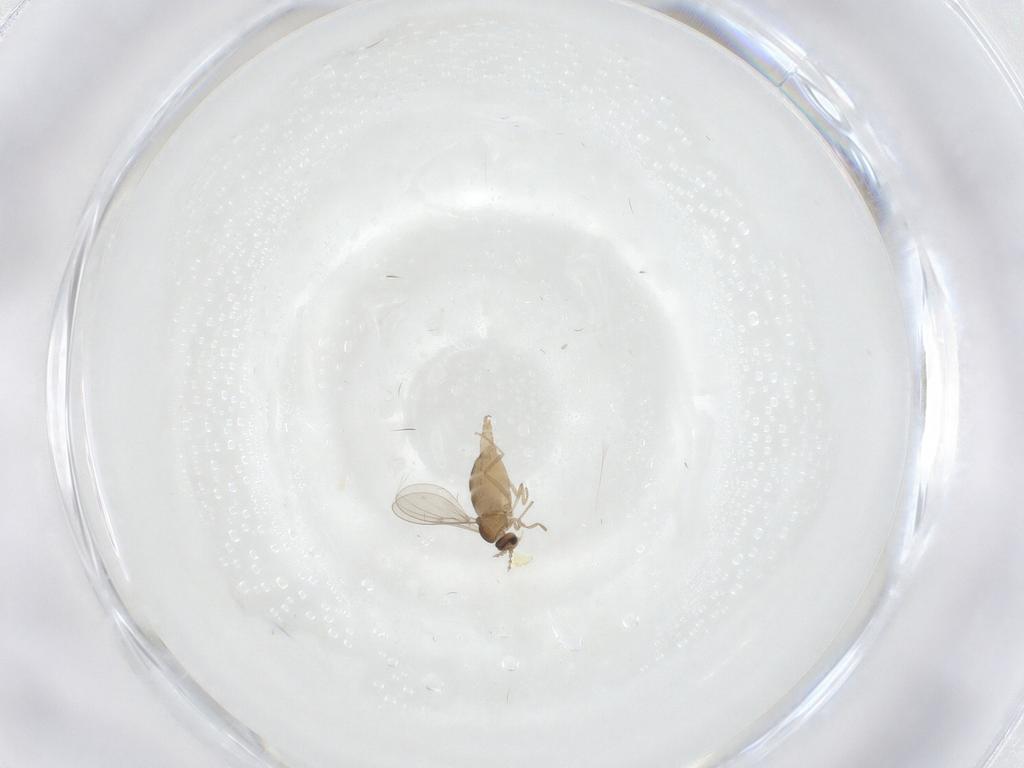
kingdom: Animalia
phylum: Arthropoda
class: Insecta
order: Diptera
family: Cecidomyiidae
